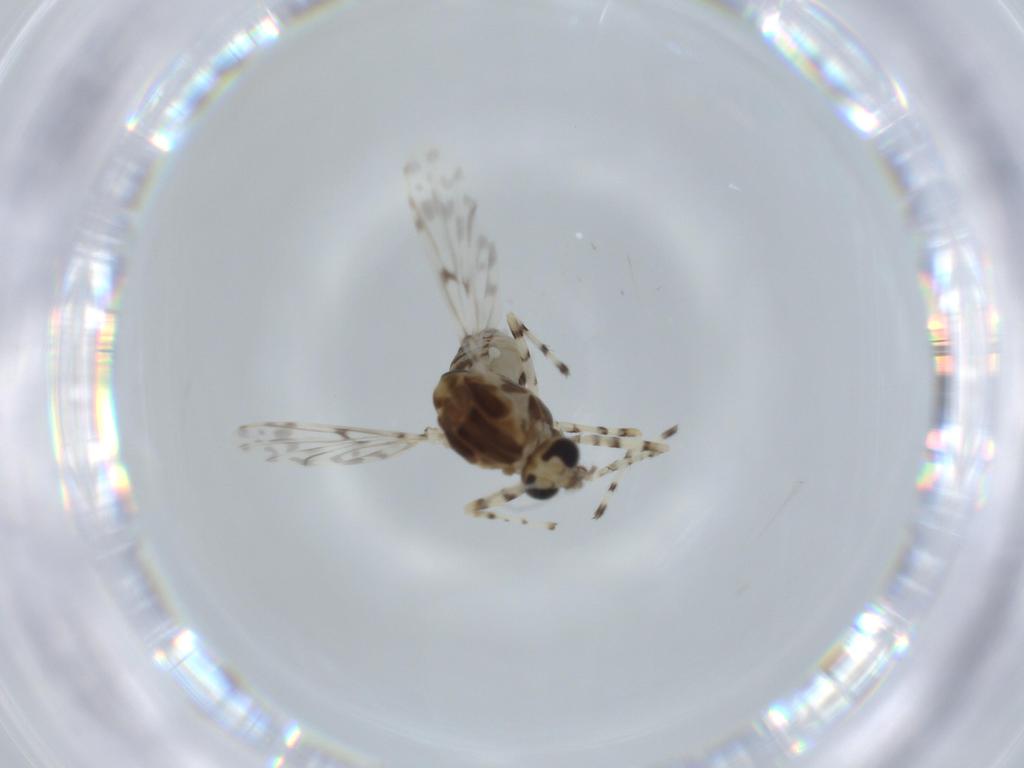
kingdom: Animalia
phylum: Arthropoda
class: Insecta
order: Diptera
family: Chironomidae
